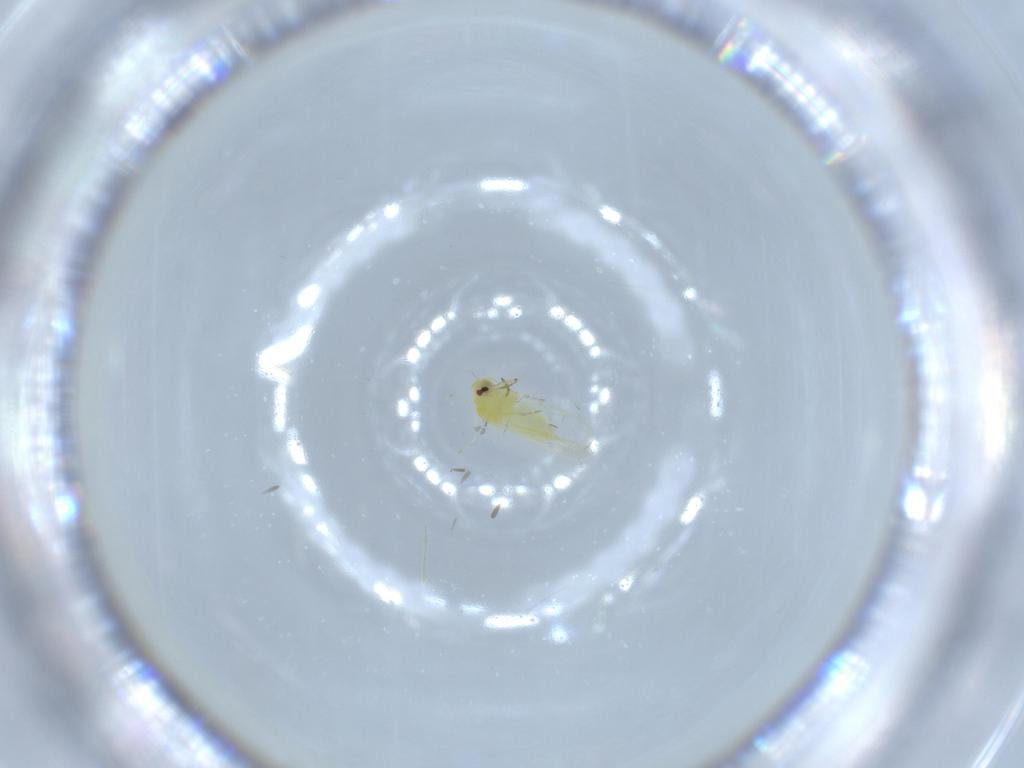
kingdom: Animalia
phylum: Arthropoda
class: Insecta
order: Hemiptera
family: Aleyrodidae
